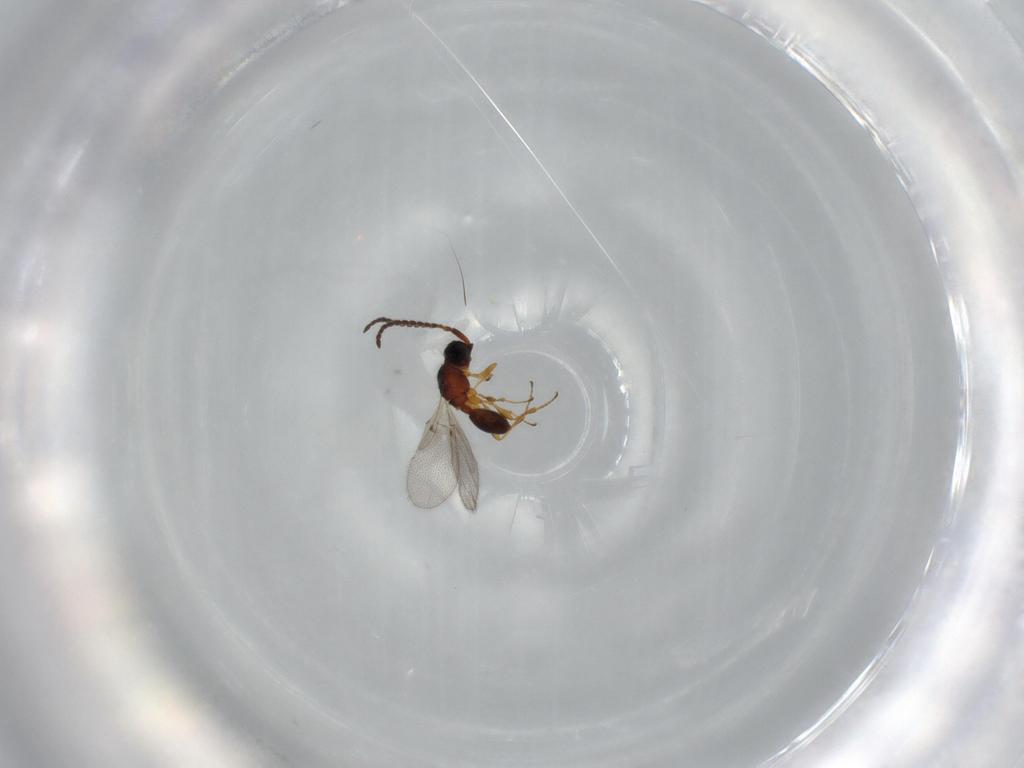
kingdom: Animalia
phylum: Arthropoda
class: Insecta
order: Hymenoptera
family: Diapriidae
